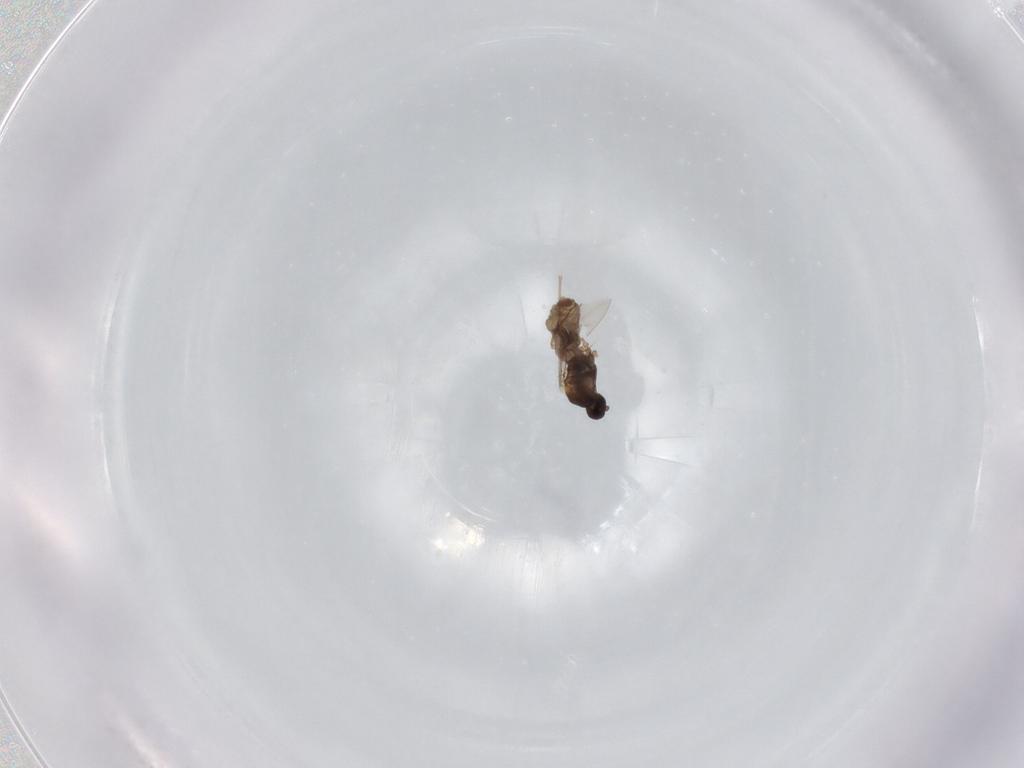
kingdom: Animalia
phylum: Arthropoda
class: Insecta
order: Diptera
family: Cecidomyiidae
